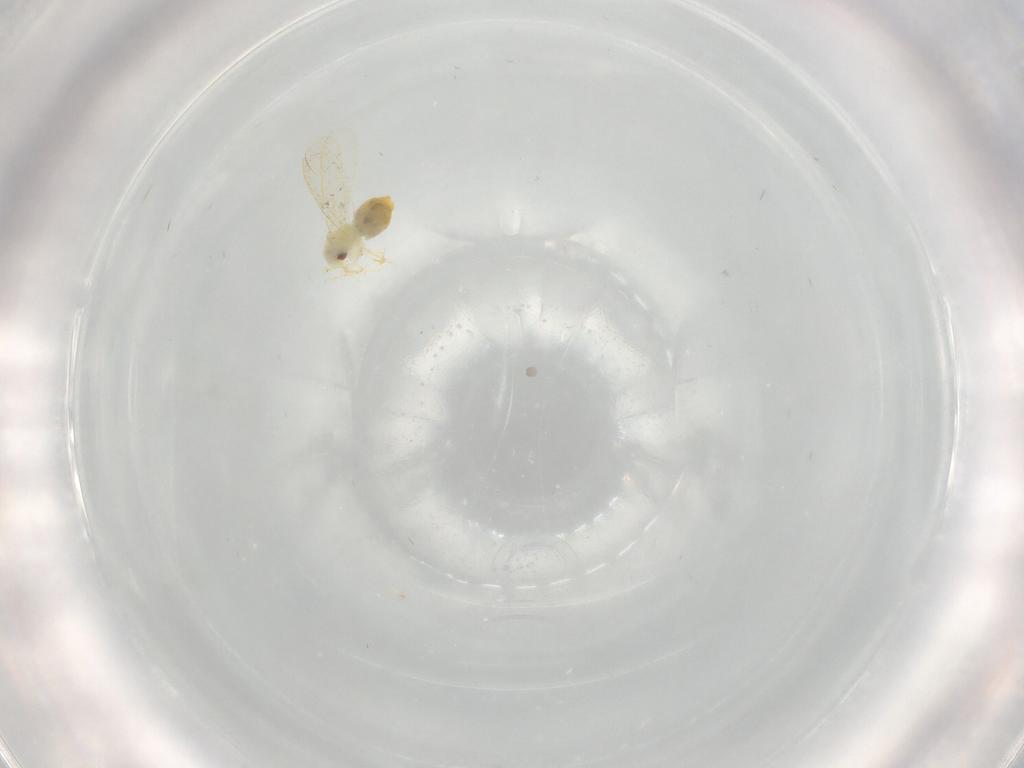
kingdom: Animalia
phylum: Arthropoda
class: Insecta
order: Hemiptera
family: Aleyrodidae
